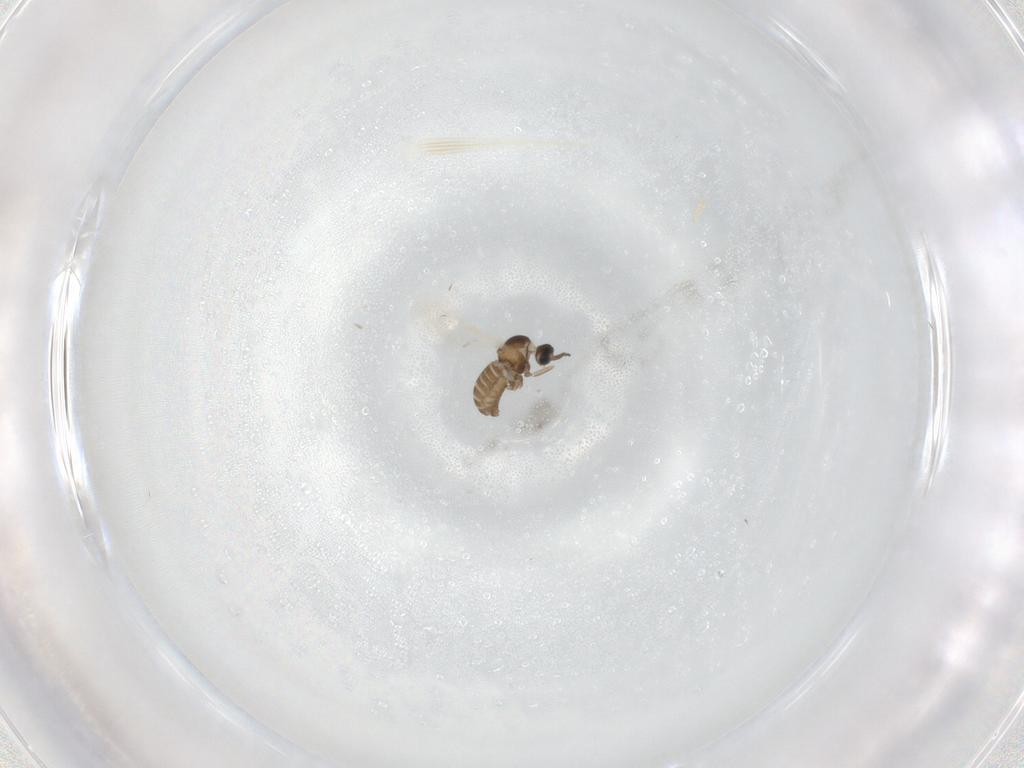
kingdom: Animalia
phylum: Arthropoda
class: Insecta
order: Diptera
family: Cecidomyiidae
